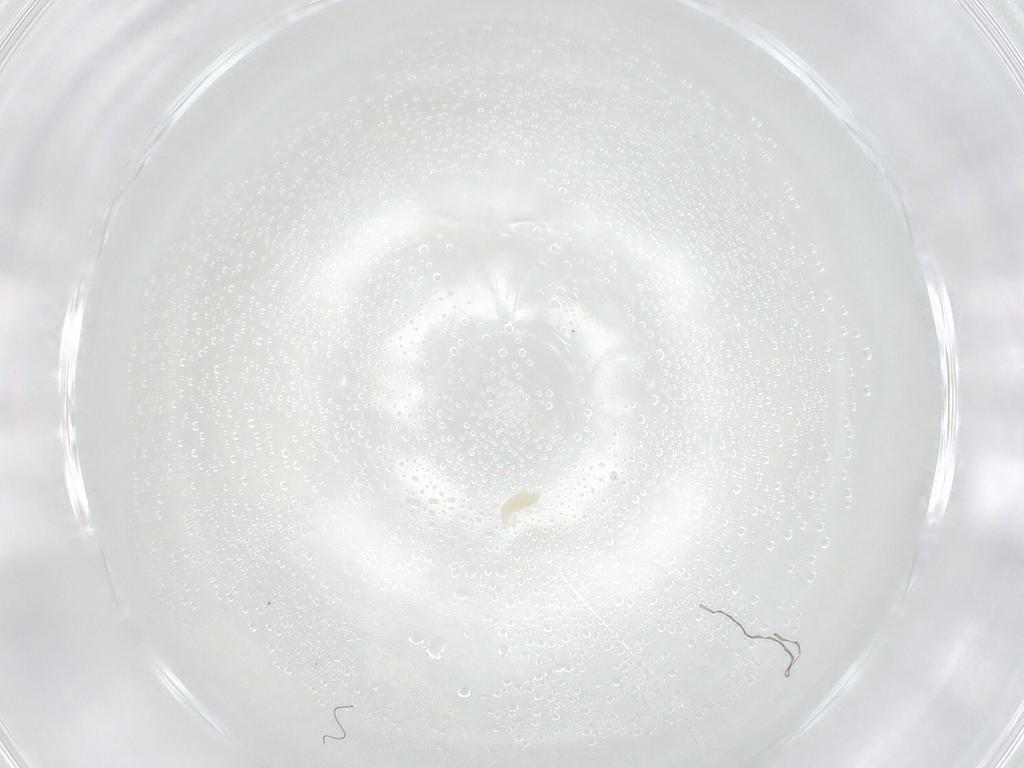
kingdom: Animalia
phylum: Arthropoda
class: Arachnida
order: Trombidiformes
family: Eupodidae
